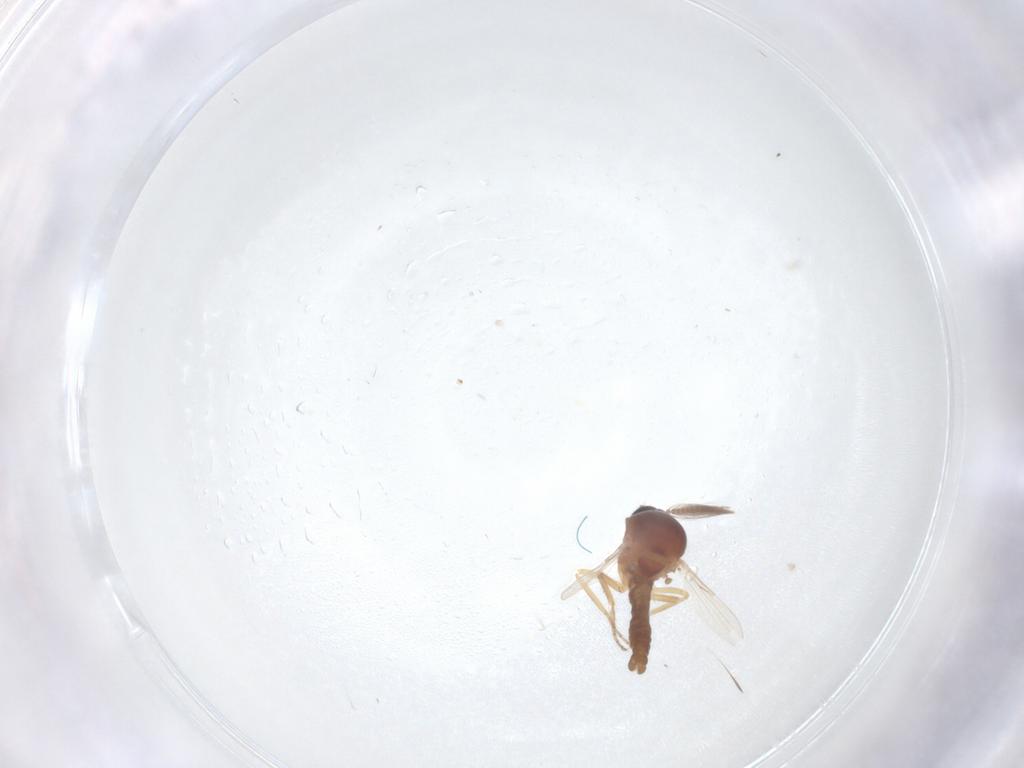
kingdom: Animalia
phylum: Arthropoda
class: Insecta
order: Diptera
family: Ceratopogonidae
